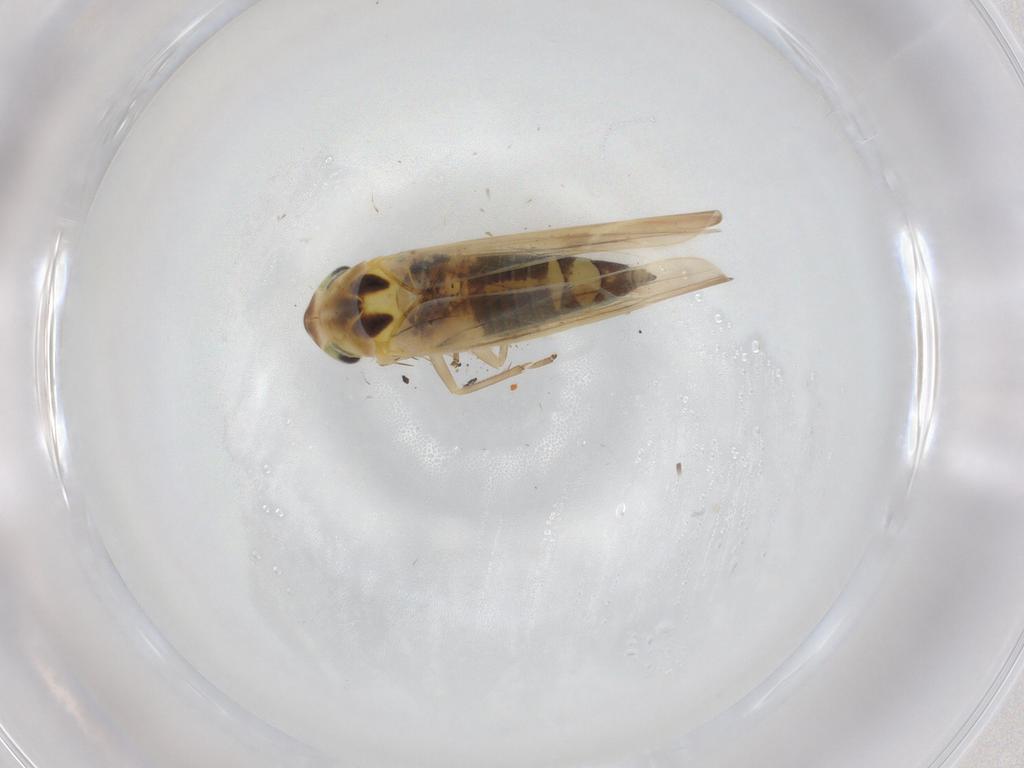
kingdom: Animalia
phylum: Arthropoda
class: Insecta
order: Hemiptera
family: Cicadellidae
